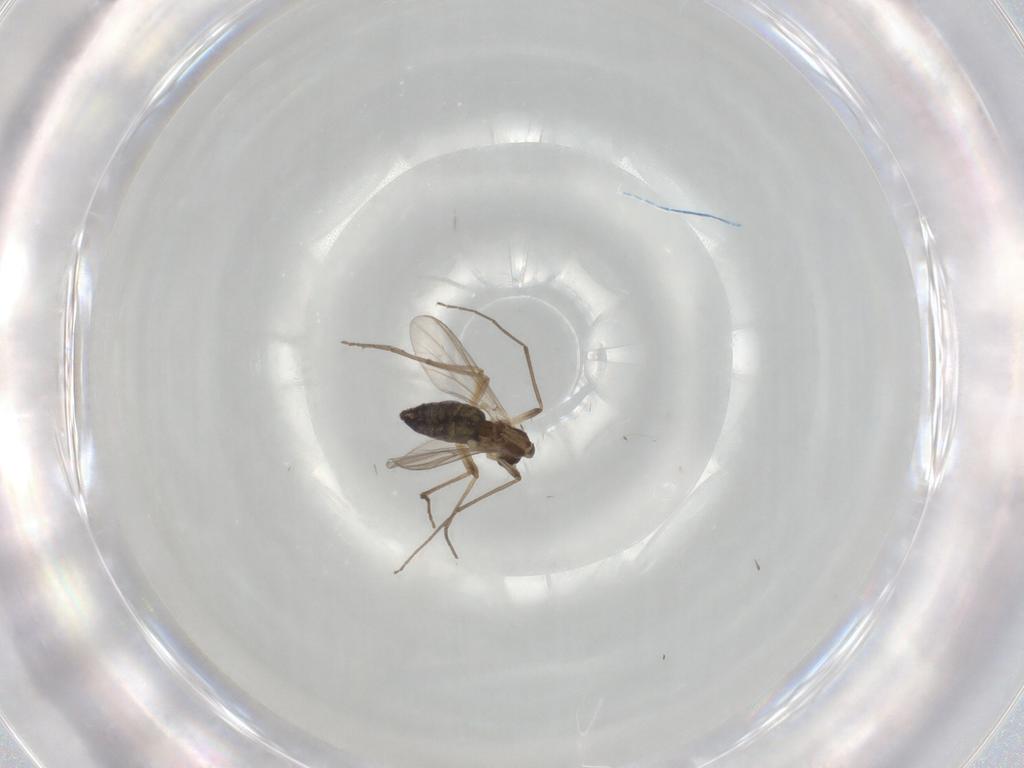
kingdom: Animalia
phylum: Arthropoda
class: Insecta
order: Diptera
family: Chironomidae
